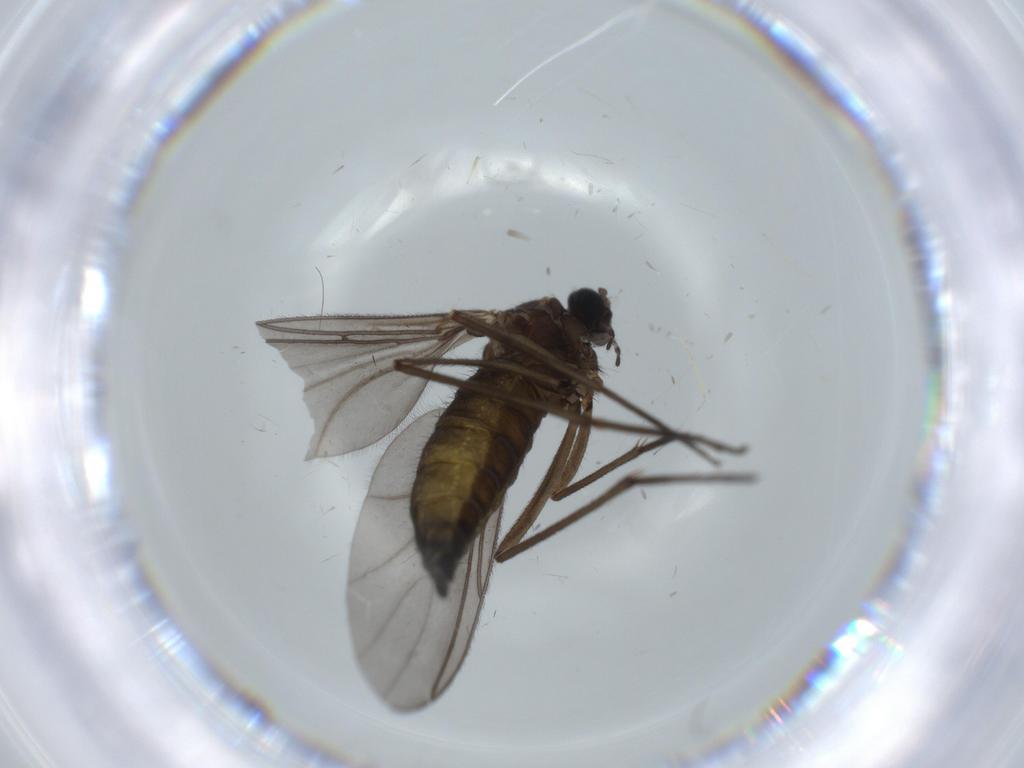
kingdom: Animalia
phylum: Arthropoda
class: Insecta
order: Diptera
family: Sciaridae
